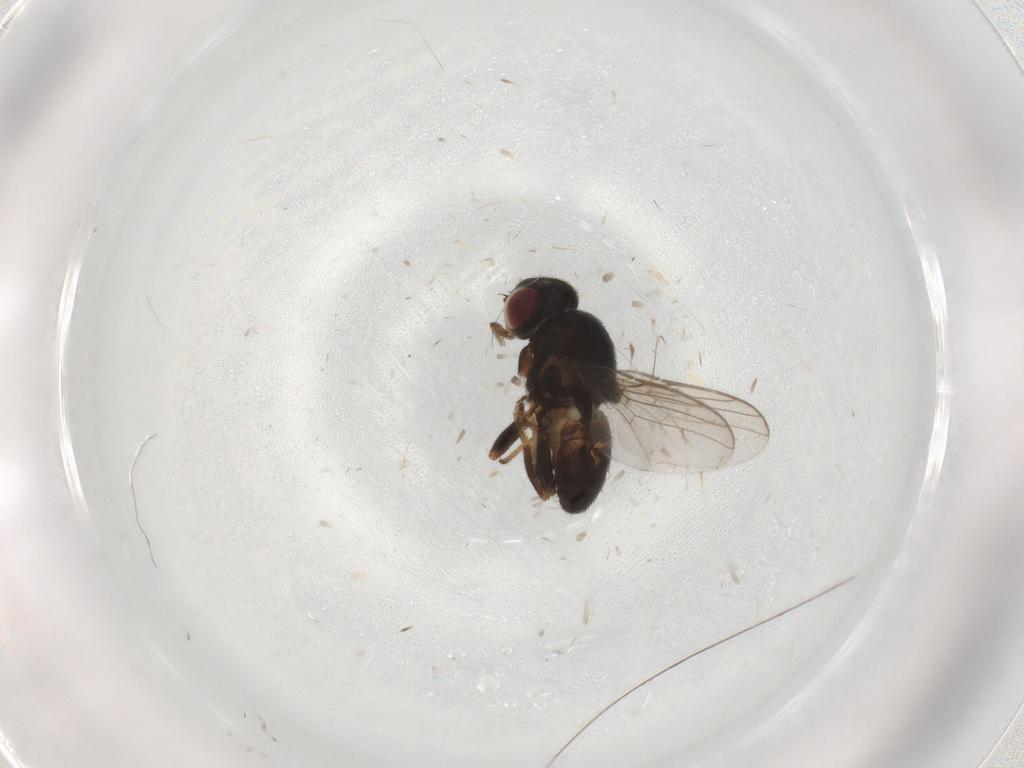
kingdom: Animalia
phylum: Arthropoda
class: Insecta
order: Diptera
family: Chloropidae
